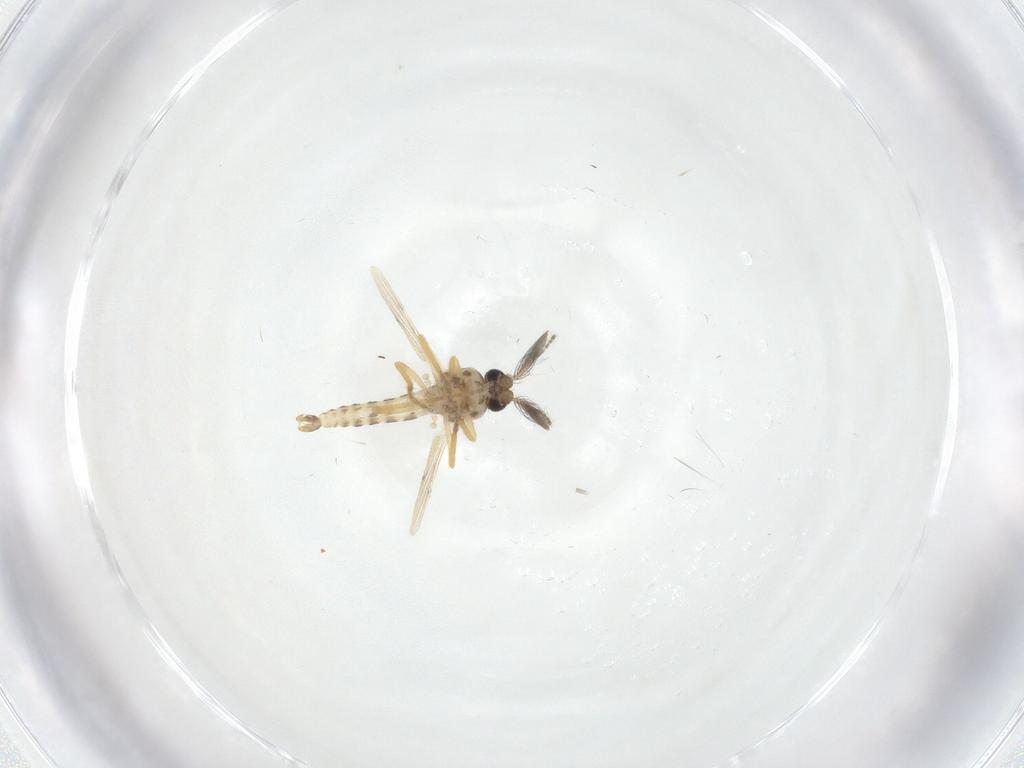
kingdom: Animalia
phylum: Arthropoda
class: Insecta
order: Diptera
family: Ceratopogonidae
